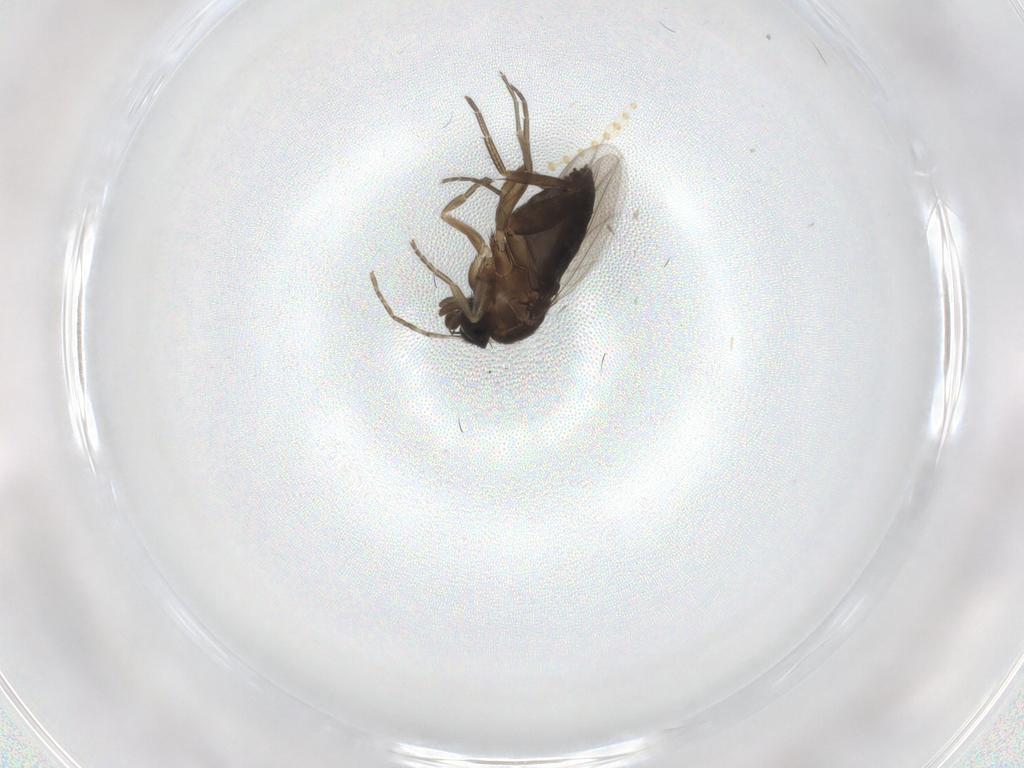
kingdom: Animalia
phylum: Arthropoda
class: Insecta
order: Diptera
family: Phoridae
